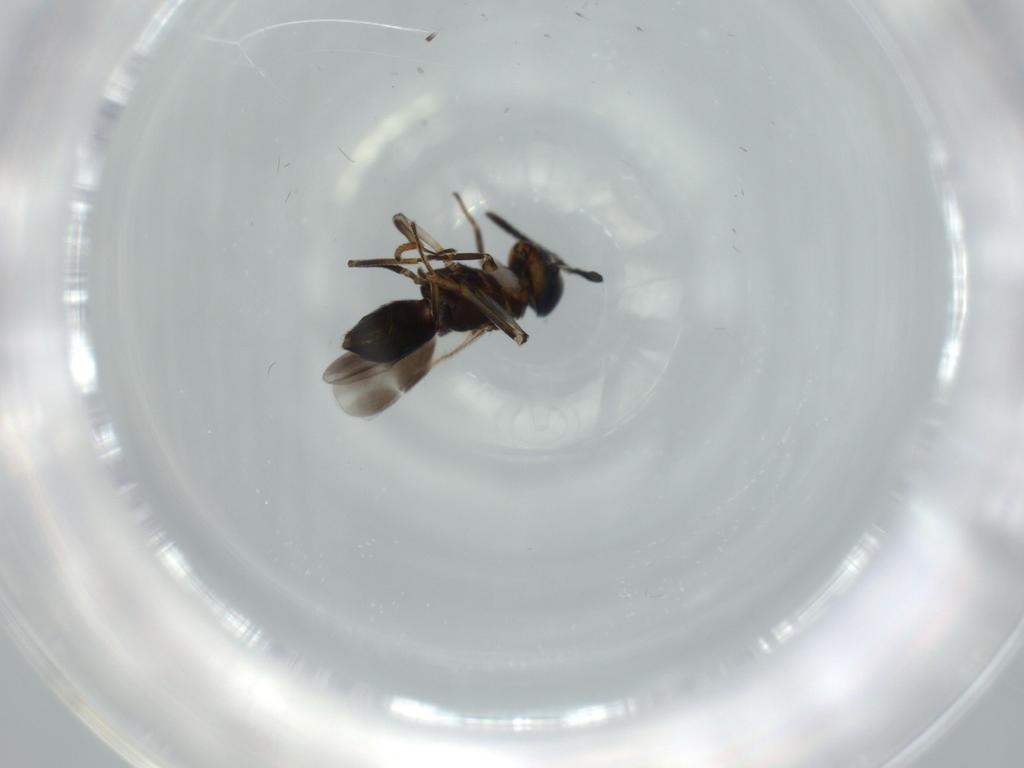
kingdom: Animalia
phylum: Arthropoda
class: Insecta
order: Hymenoptera
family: Encyrtidae
